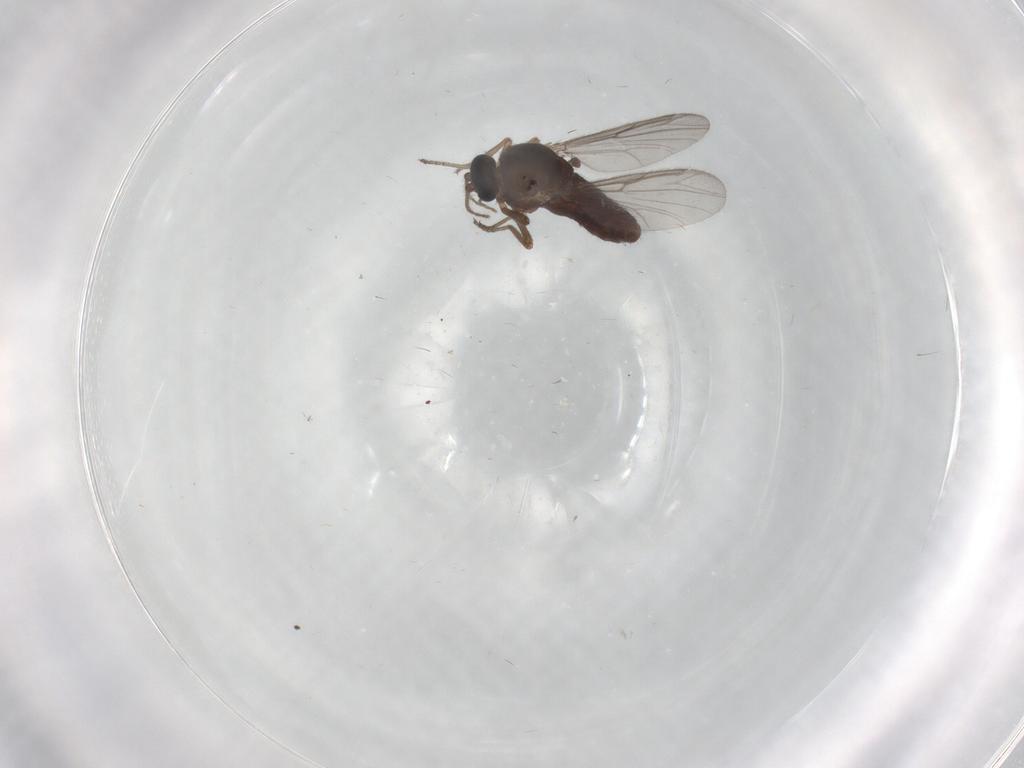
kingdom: Animalia
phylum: Arthropoda
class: Insecta
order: Diptera
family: Ceratopogonidae
